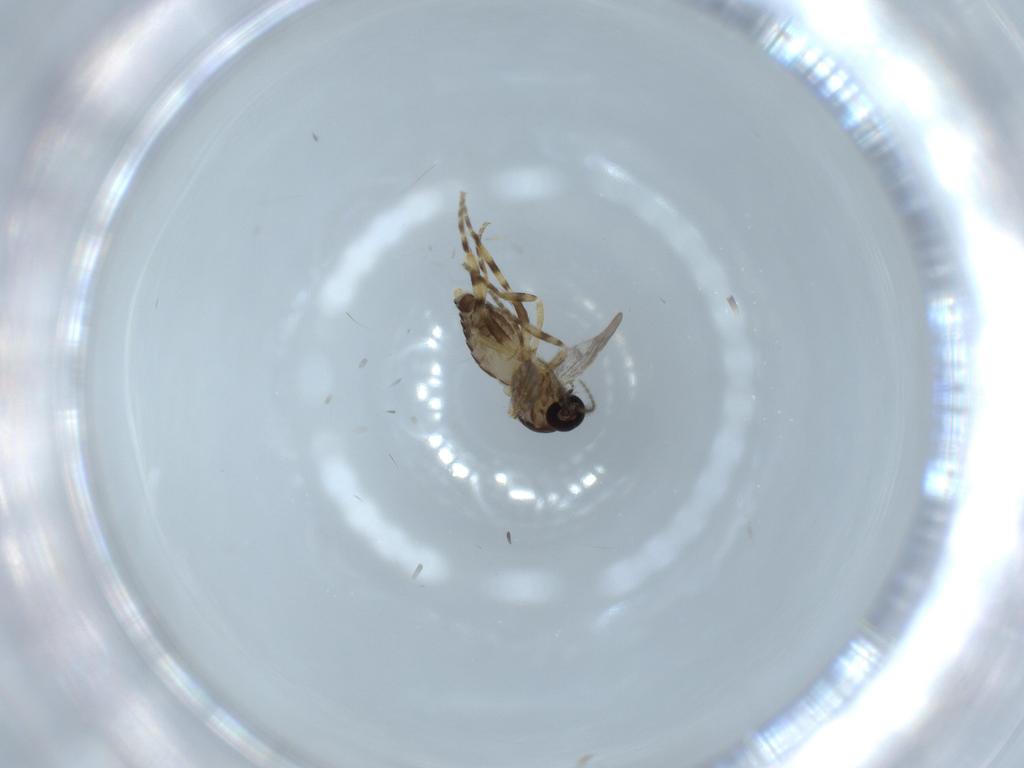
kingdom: Animalia
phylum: Arthropoda
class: Insecta
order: Diptera
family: Ceratopogonidae
